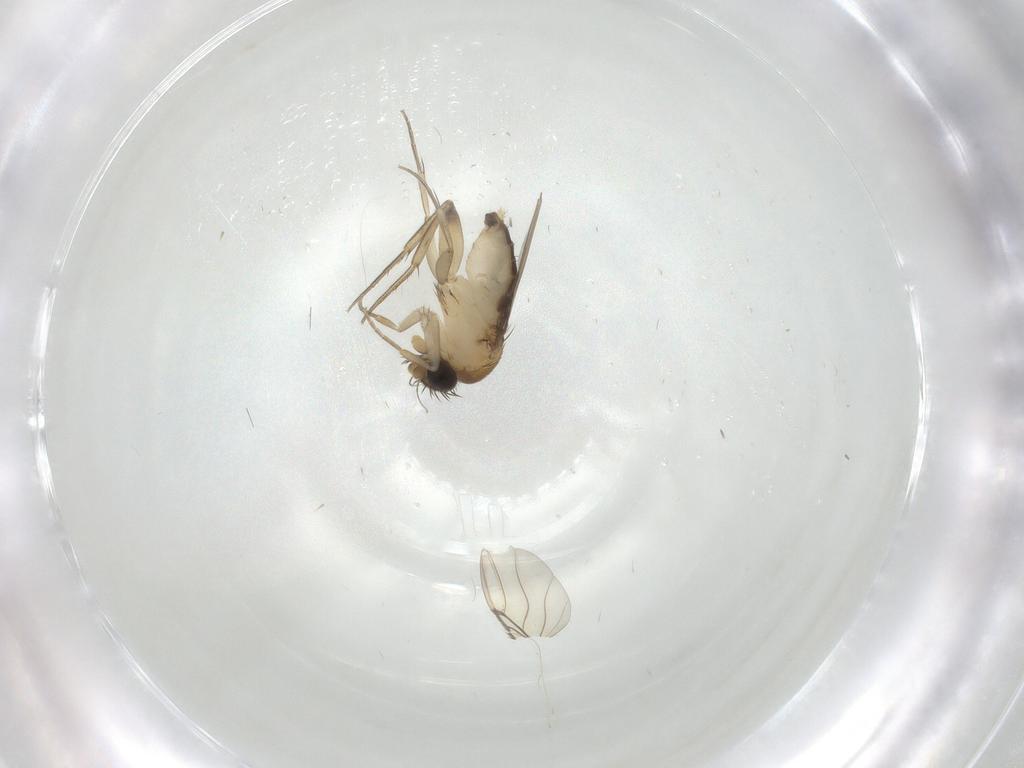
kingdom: Animalia
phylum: Arthropoda
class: Insecta
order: Diptera
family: Phoridae
